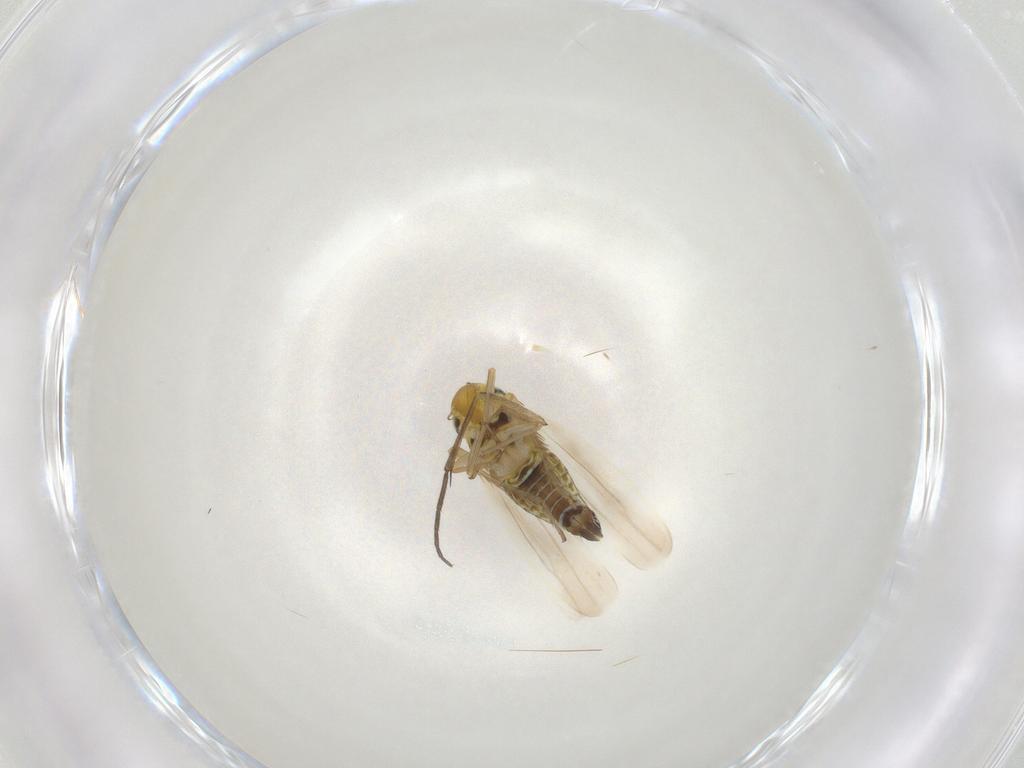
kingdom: Animalia
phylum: Arthropoda
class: Insecta
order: Hemiptera
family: Cicadellidae
